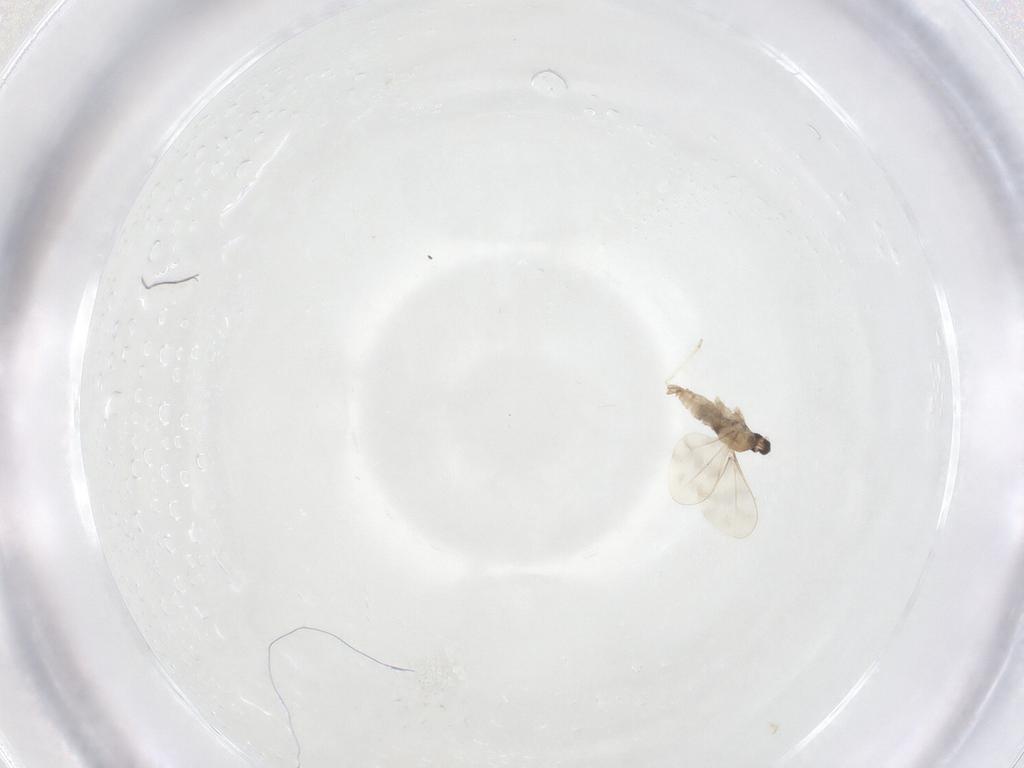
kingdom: Animalia
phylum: Arthropoda
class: Insecta
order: Diptera
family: Cecidomyiidae
